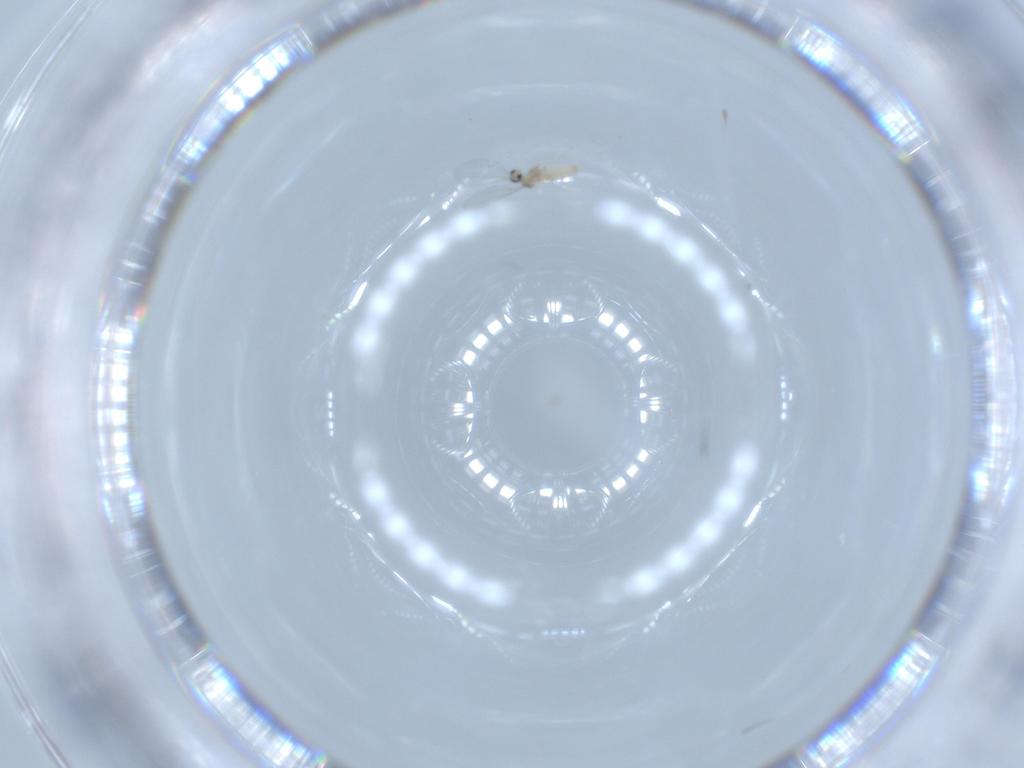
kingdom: Animalia
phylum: Arthropoda
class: Insecta
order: Diptera
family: Cecidomyiidae
